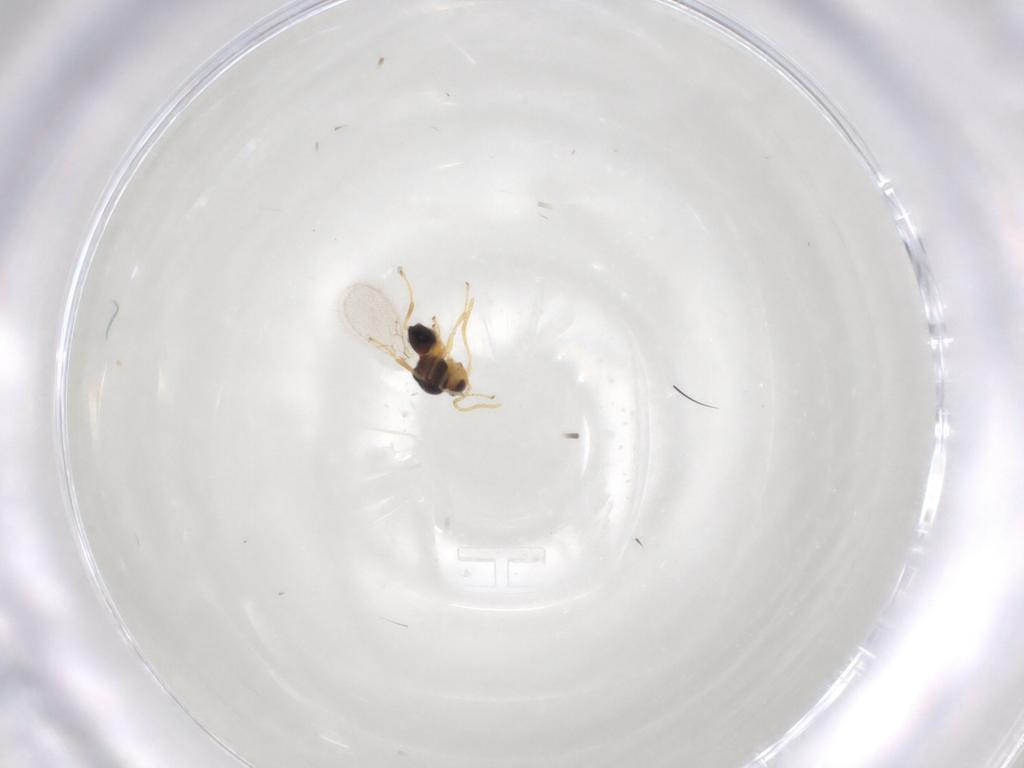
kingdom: Animalia
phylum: Arthropoda
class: Insecta
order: Hymenoptera
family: Figitidae
